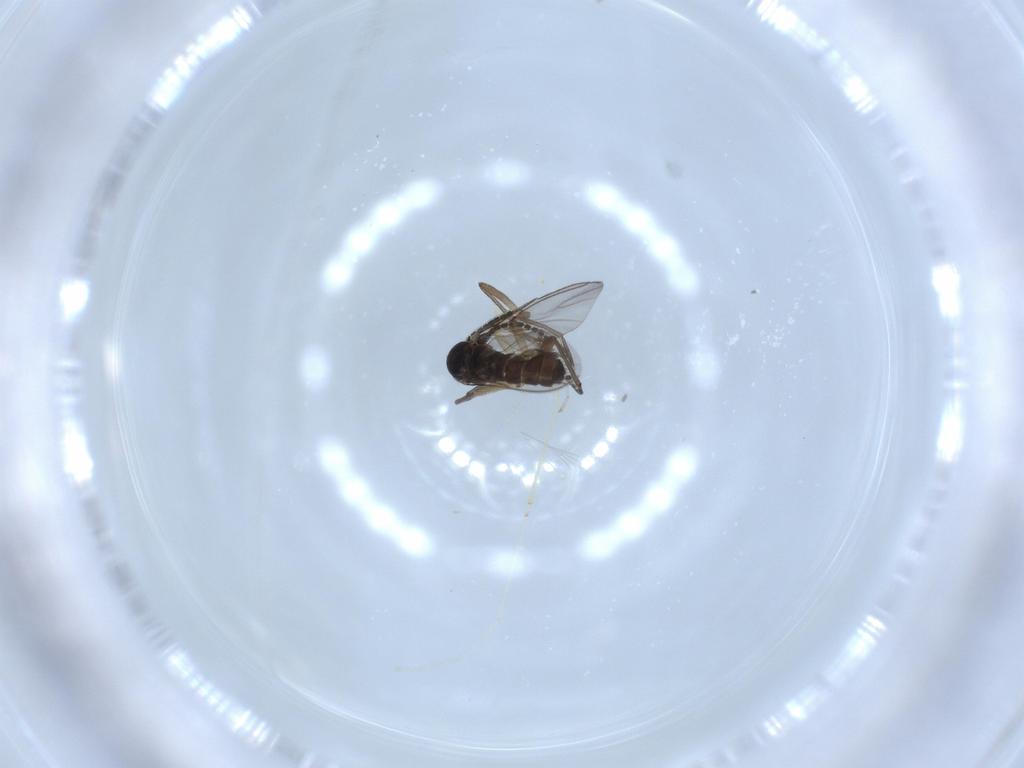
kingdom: Animalia
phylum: Arthropoda
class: Insecta
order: Diptera
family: Sciaridae
